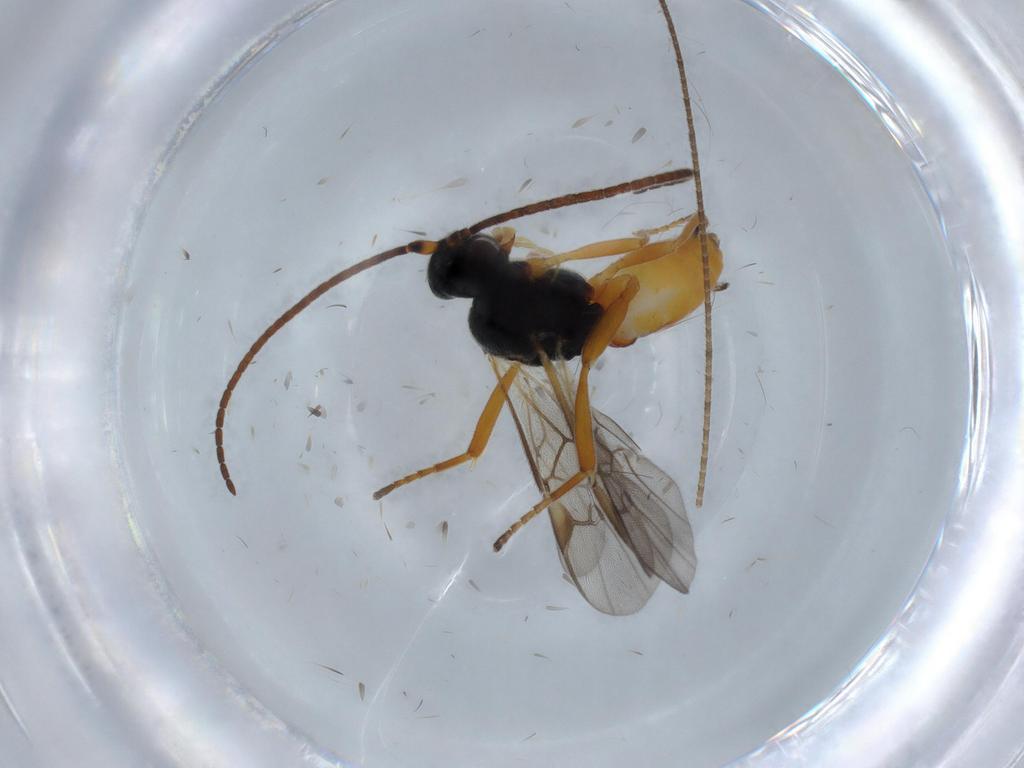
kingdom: Animalia
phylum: Arthropoda
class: Insecta
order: Hymenoptera
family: Braconidae
